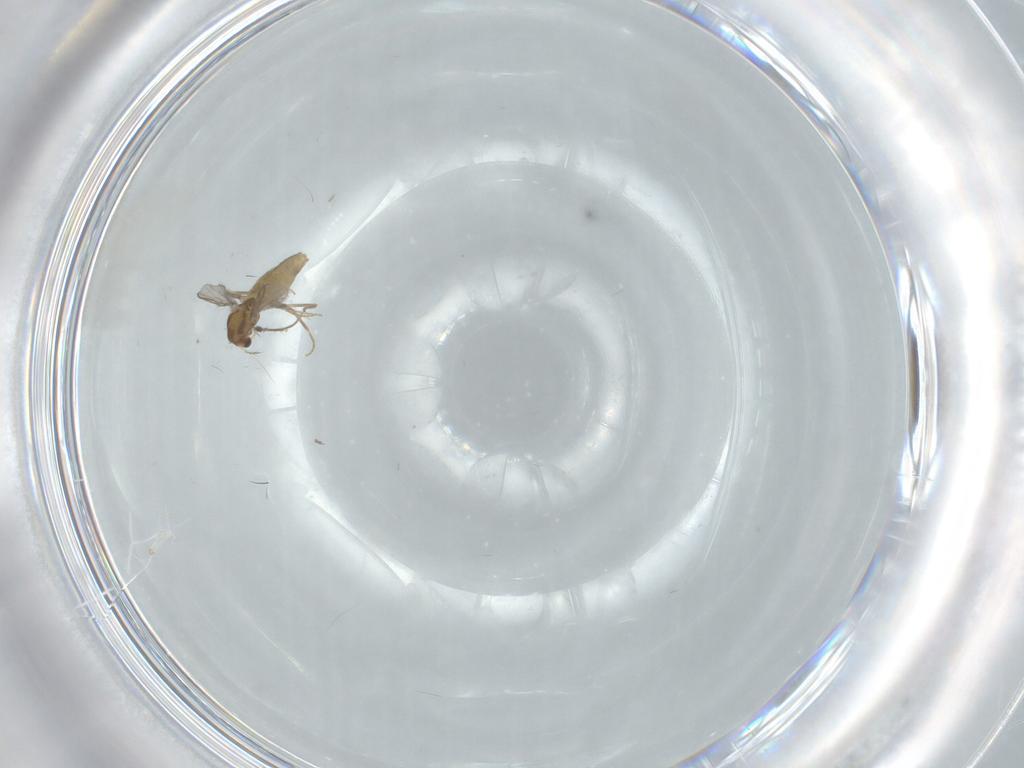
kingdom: Animalia
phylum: Arthropoda
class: Insecta
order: Diptera
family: Chironomidae
